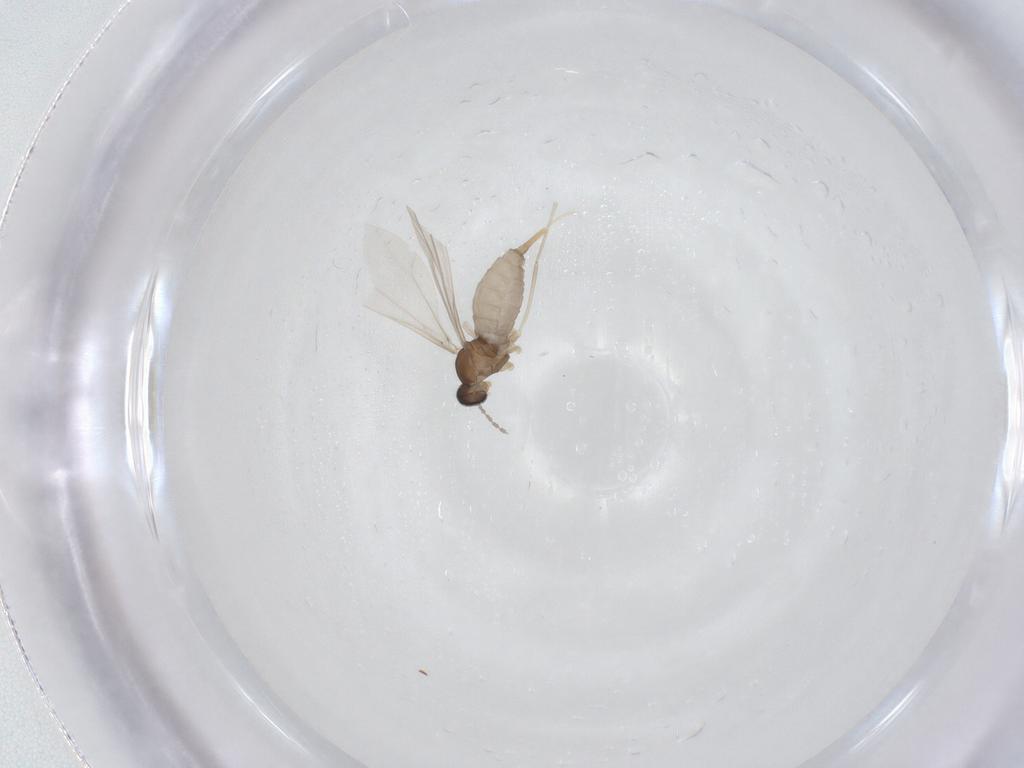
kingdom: Animalia
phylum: Arthropoda
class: Insecta
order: Diptera
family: Cecidomyiidae
